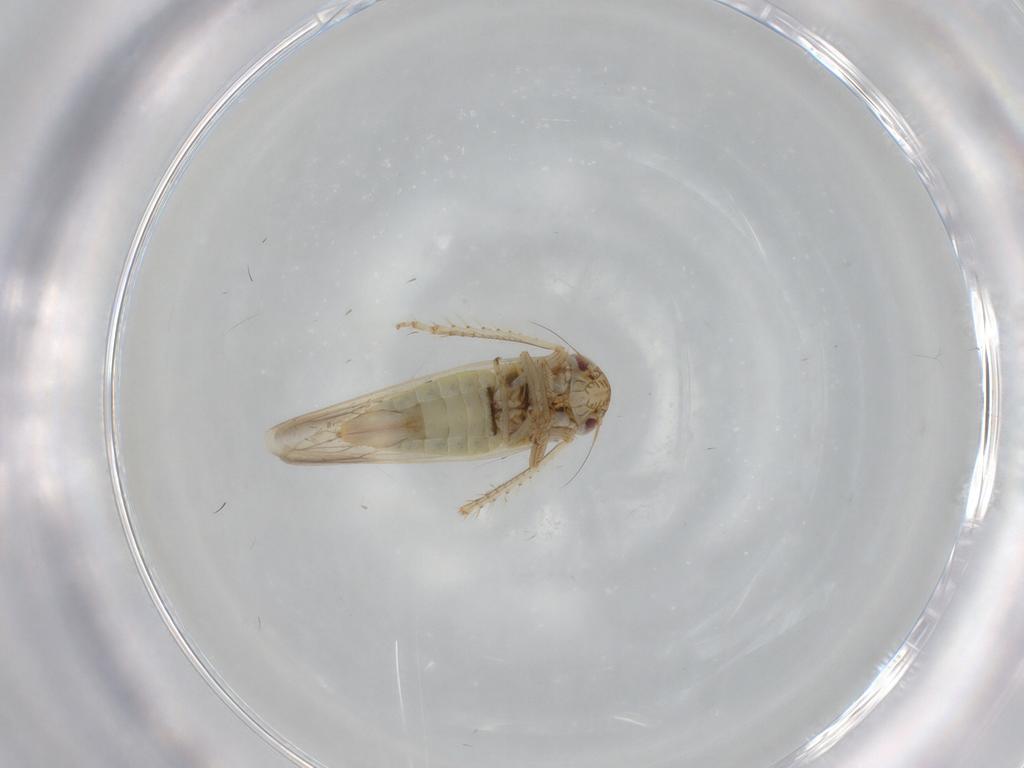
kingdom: Animalia
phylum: Arthropoda
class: Insecta
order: Hemiptera
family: Cicadellidae
